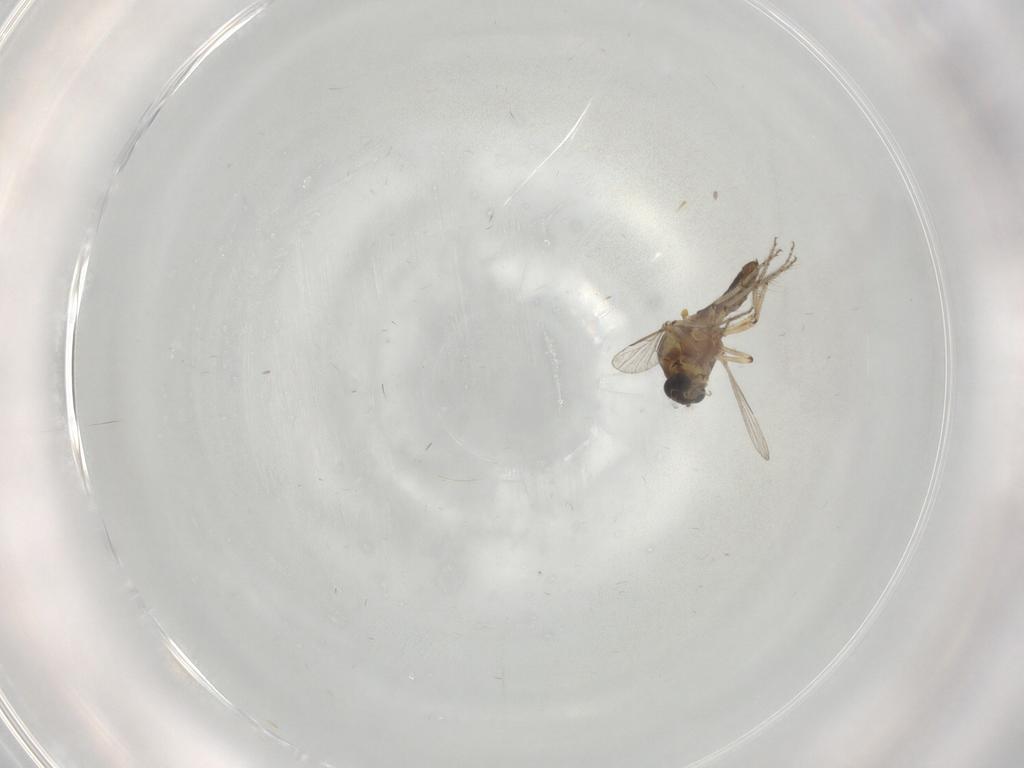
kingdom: Animalia
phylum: Arthropoda
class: Insecta
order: Diptera
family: Ceratopogonidae
